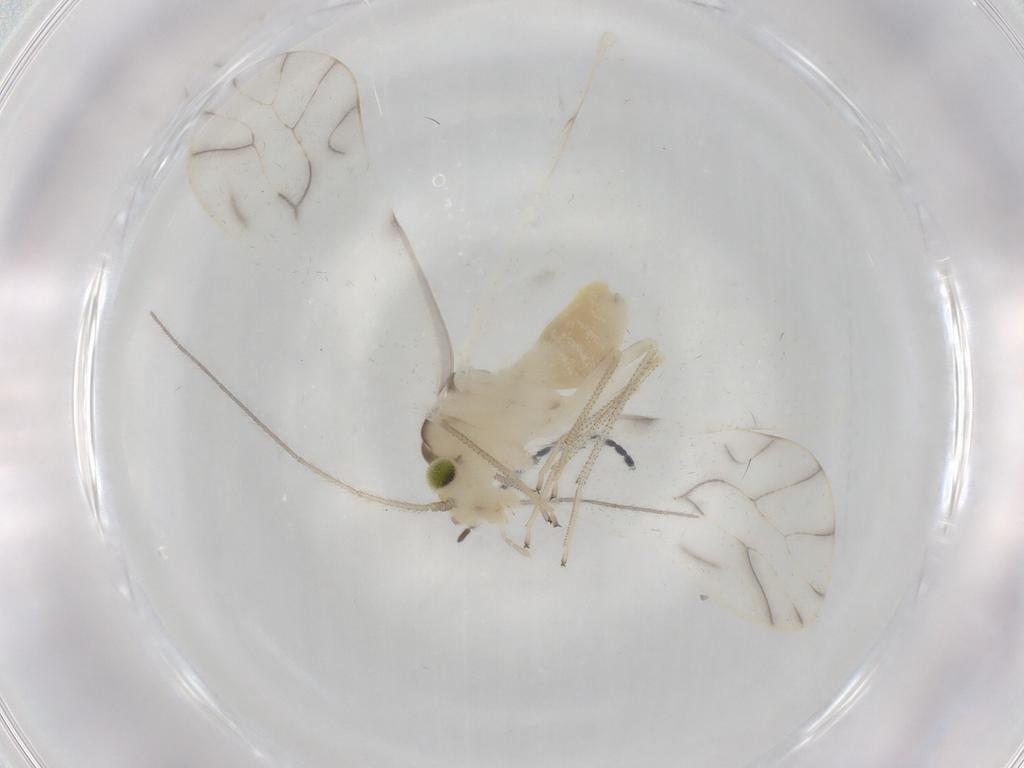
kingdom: Animalia
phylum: Arthropoda
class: Insecta
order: Psocodea
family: Caeciliusidae
